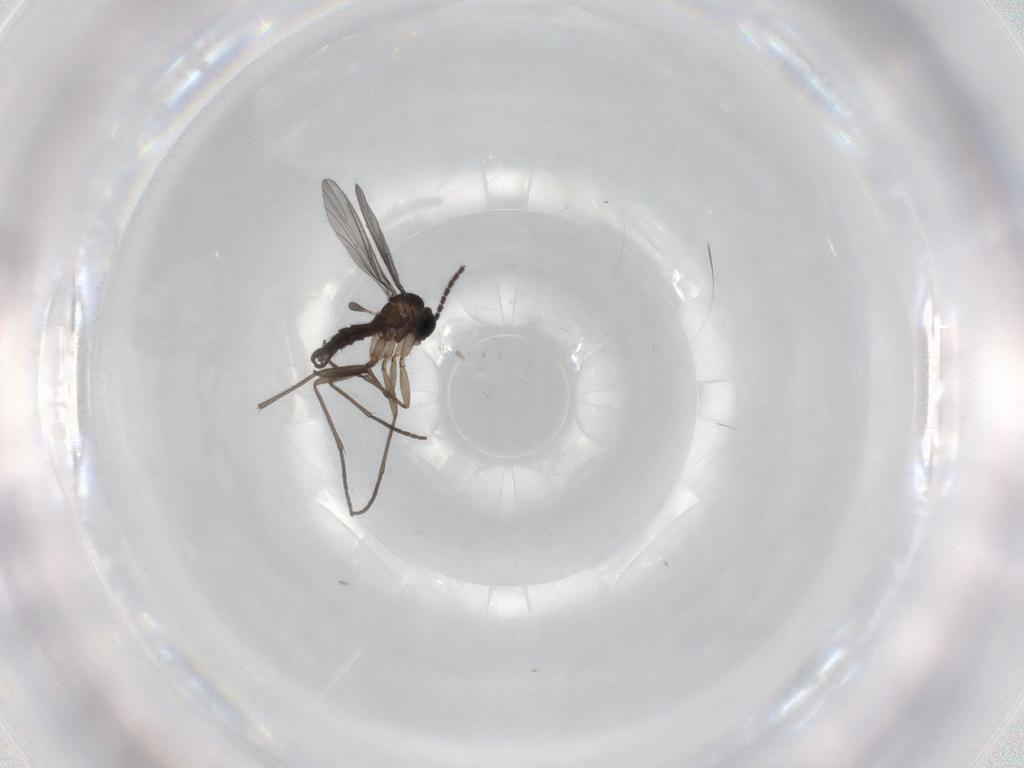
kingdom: Animalia
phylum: Arthropoda
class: Insecta
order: Diptera
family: Sciaridae
